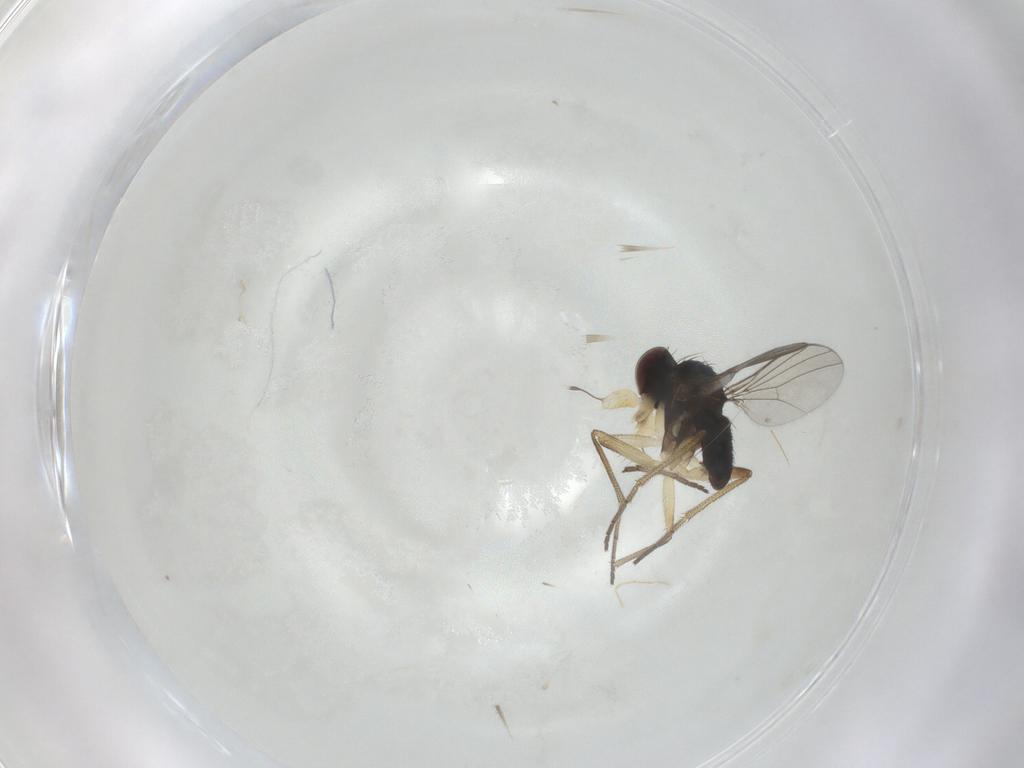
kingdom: Animalia
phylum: Arthropoda
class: Insecta
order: Diptera
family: Dolichopodidae
